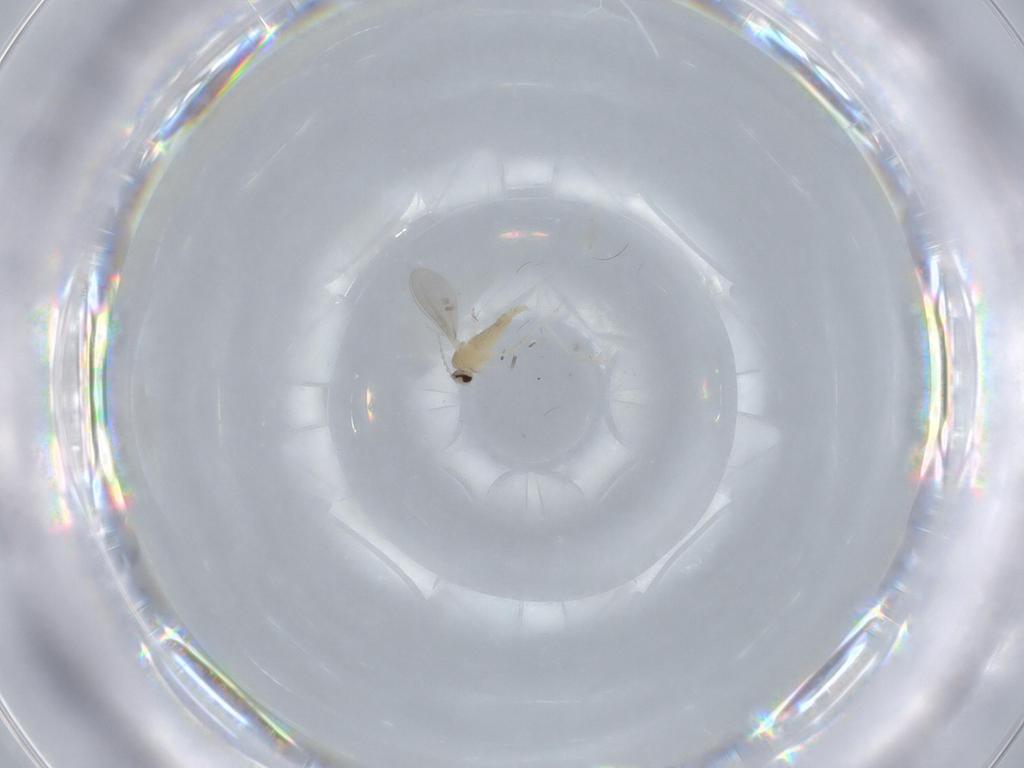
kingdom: Animalia
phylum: Arthropoda
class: Insecta
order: Diptera
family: Cecidomyiidae
